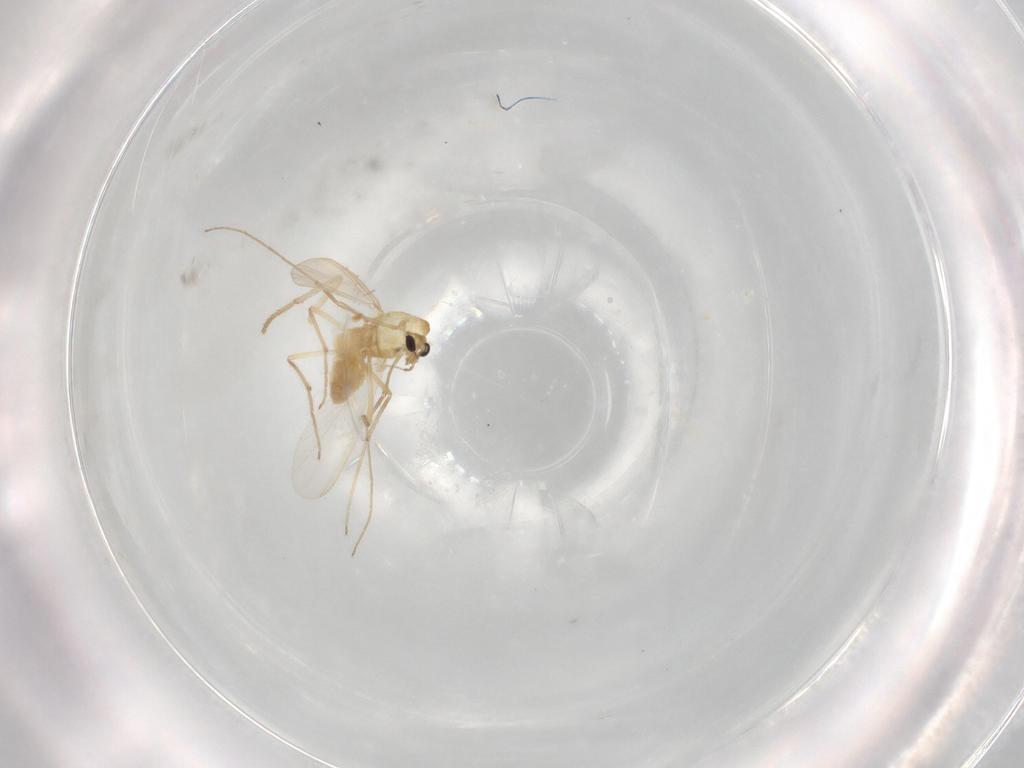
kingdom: Animalia
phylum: Arthropoda
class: Insecta
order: Diptera
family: Chironomidae
